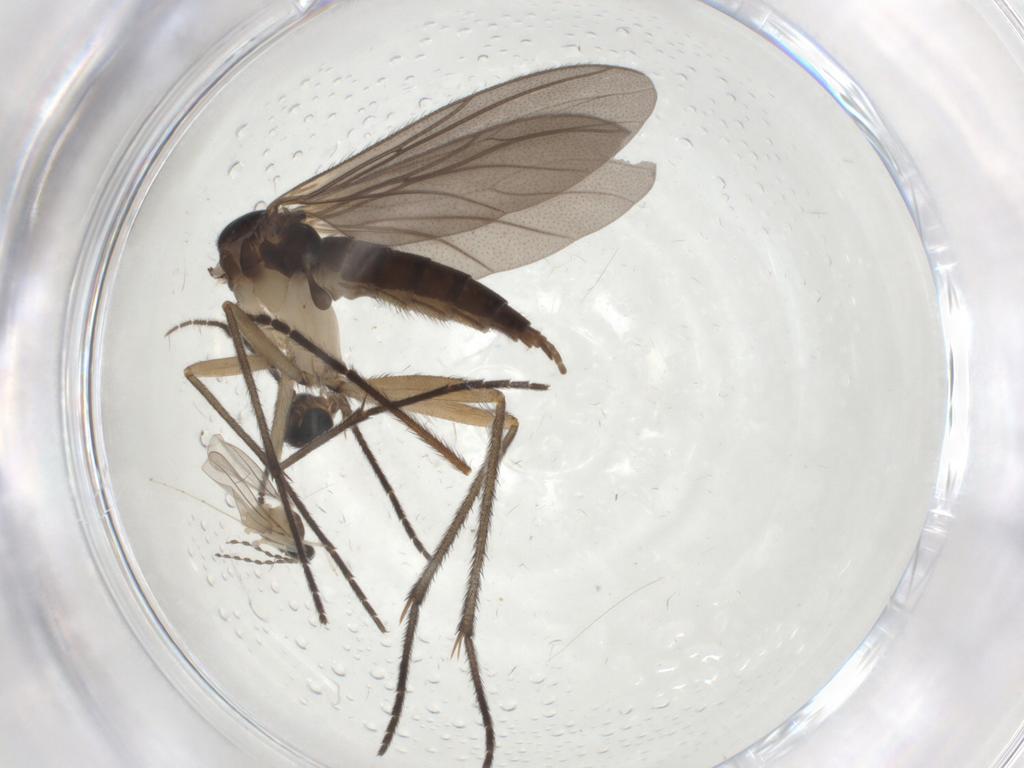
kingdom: Animalia
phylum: Arthropoda
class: Insecta
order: Diptera
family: Sciaridae
